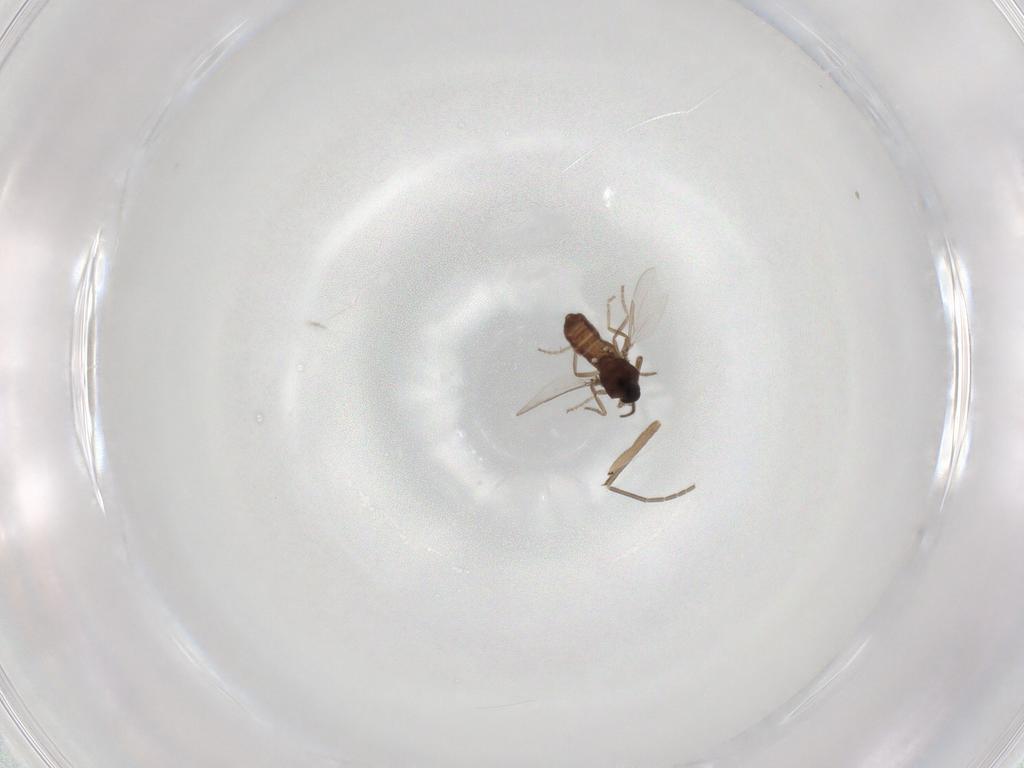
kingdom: Animalia
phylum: Arthropoda
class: Insecta
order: Diptera
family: Ceratopogonidae
